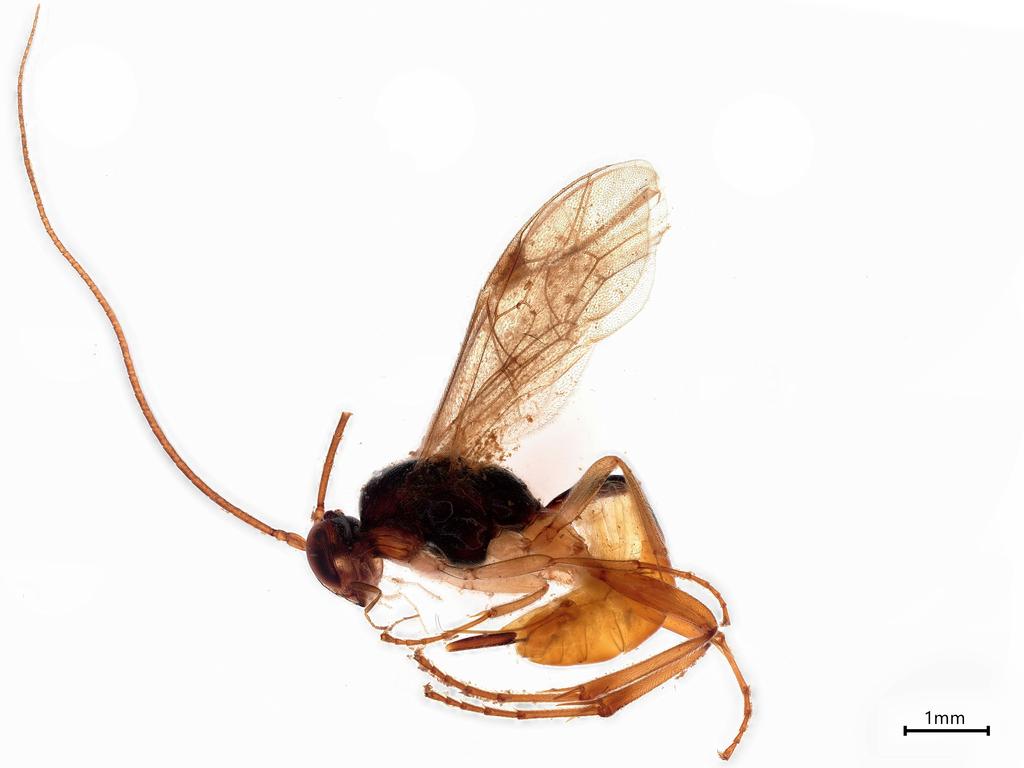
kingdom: Animalia
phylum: Arthropoda
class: Insecta
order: Hymenoptera
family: Ichneumonidae
